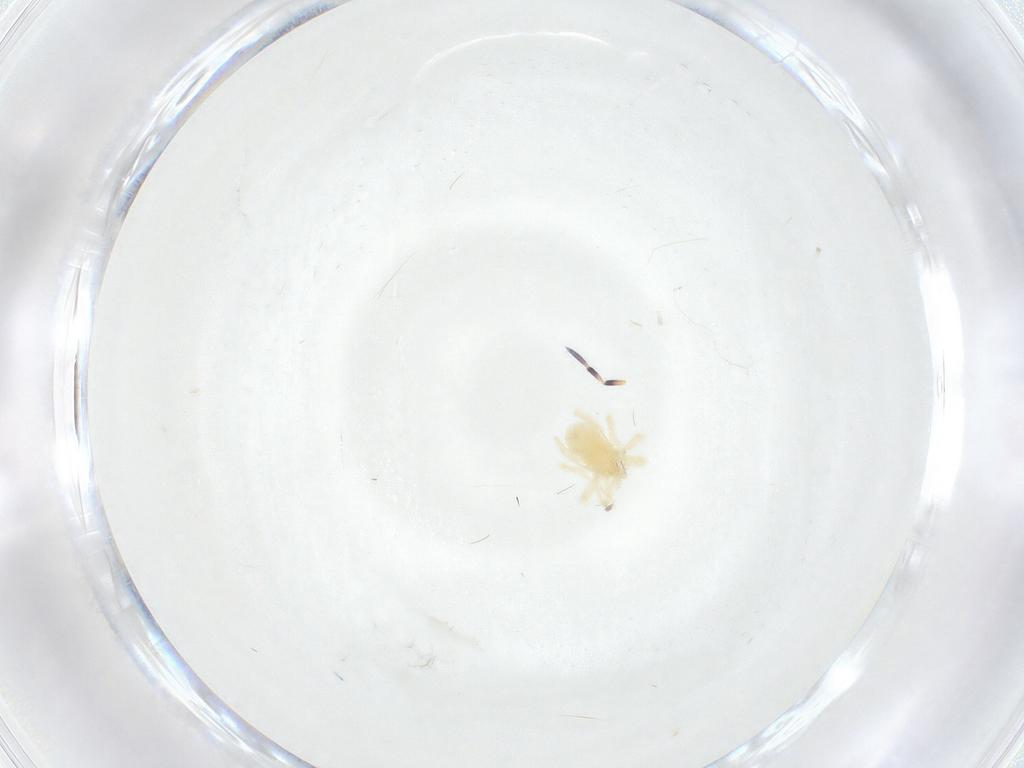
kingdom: Animalia
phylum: Arthropoda
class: Arachnida
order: Trombidiformes
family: Anystidae
